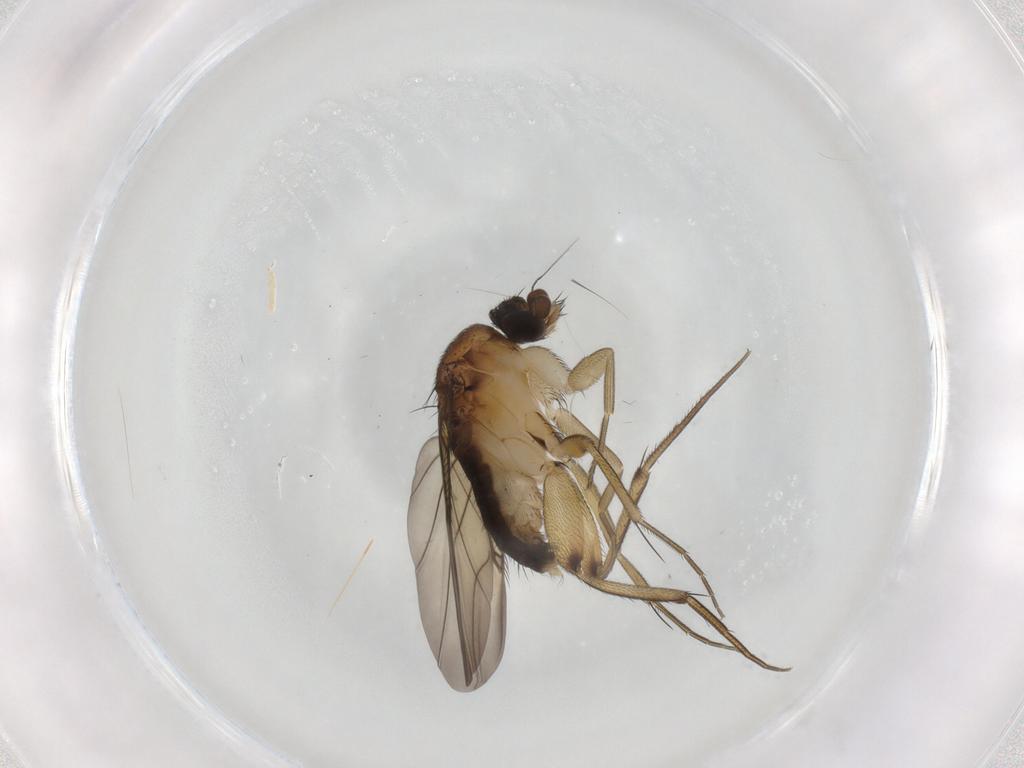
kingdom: Animalia
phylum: Arthropoda
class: Insecta
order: Diptera
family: Phoridae
